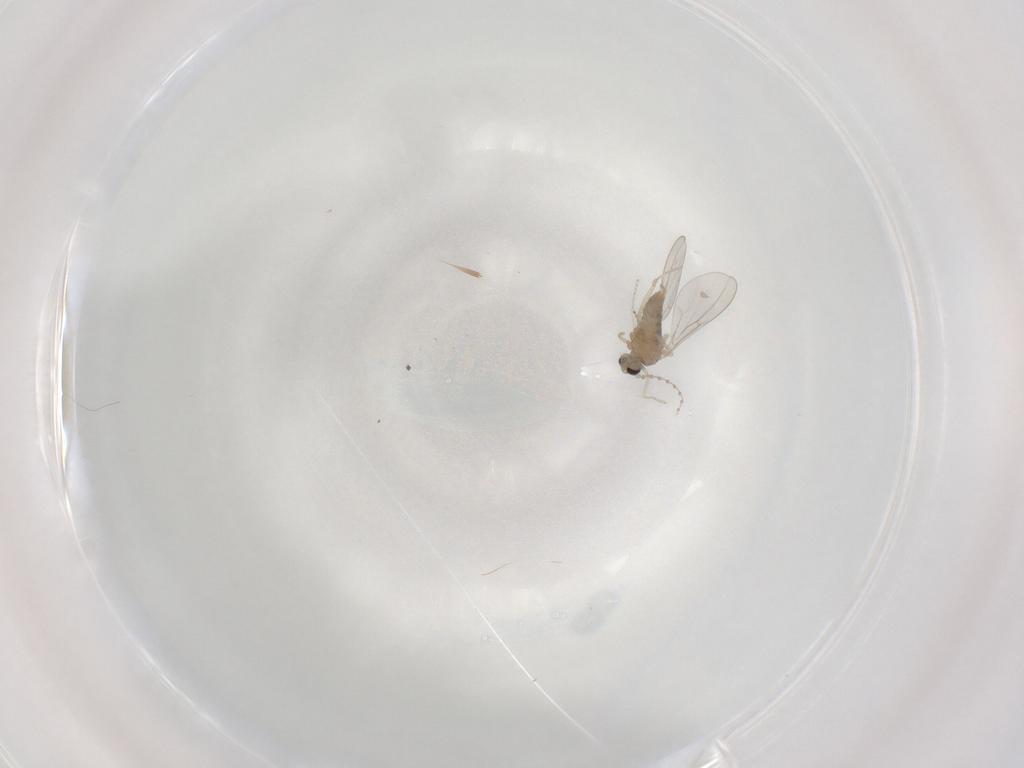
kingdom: Animalia
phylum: Arthropoda
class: Insecta
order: Diptera
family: Cecidomyiidae
